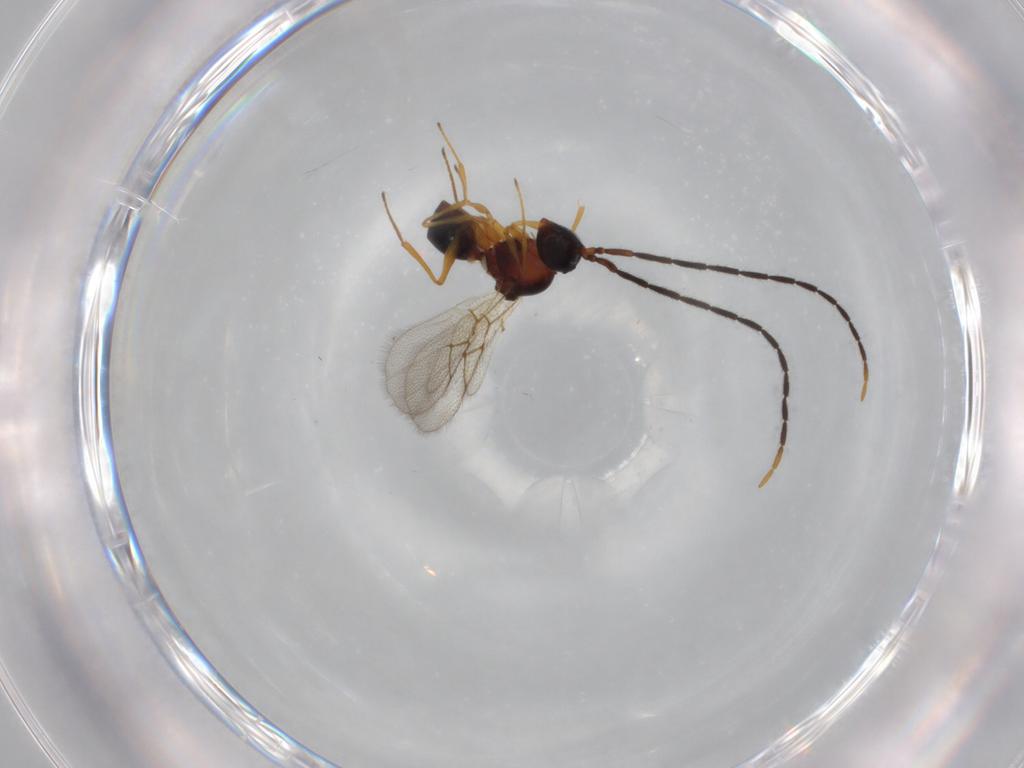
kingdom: Animalia
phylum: Arthropoda
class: Insecta
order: Hymenoptera
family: Figitidae
